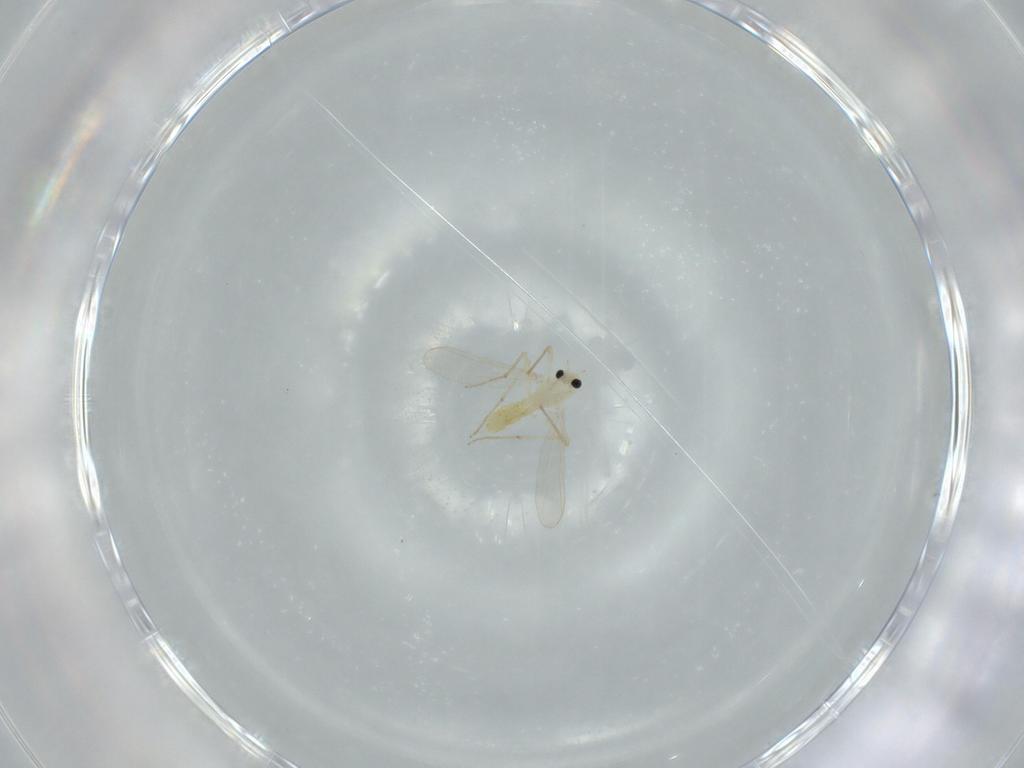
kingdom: Animalia
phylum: Arthropoda
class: Insecta
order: Diptera
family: Chironomidae
